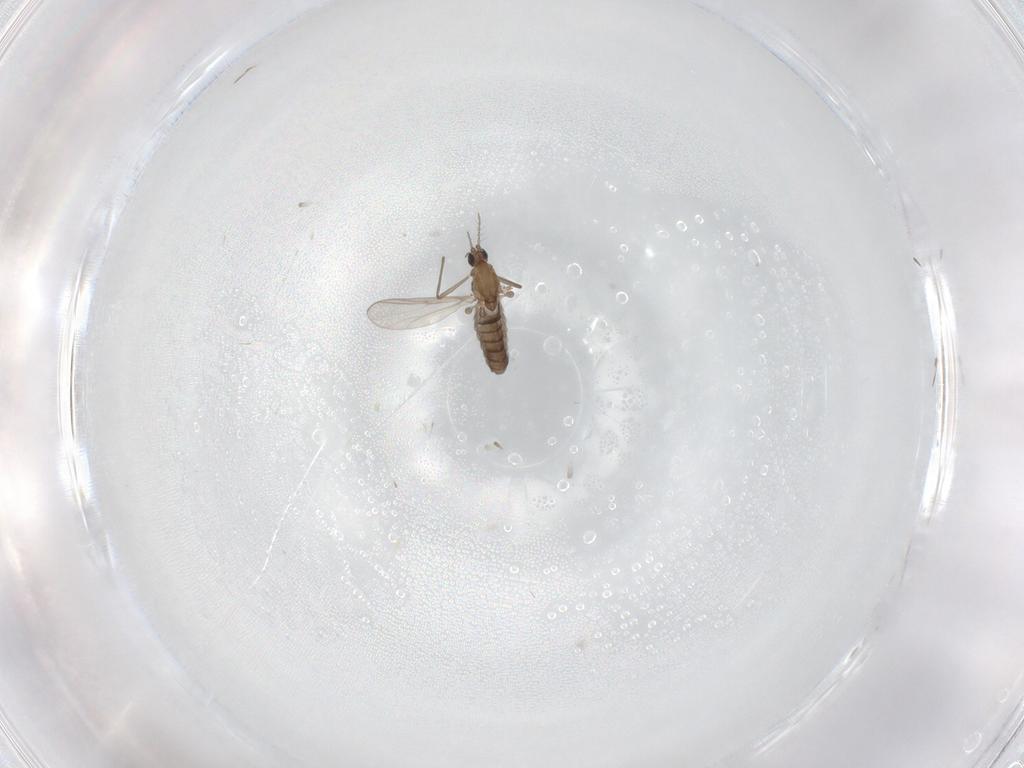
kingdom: Animalia
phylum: Arthropoda
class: Insecta
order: Diptera
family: Chironomidae
